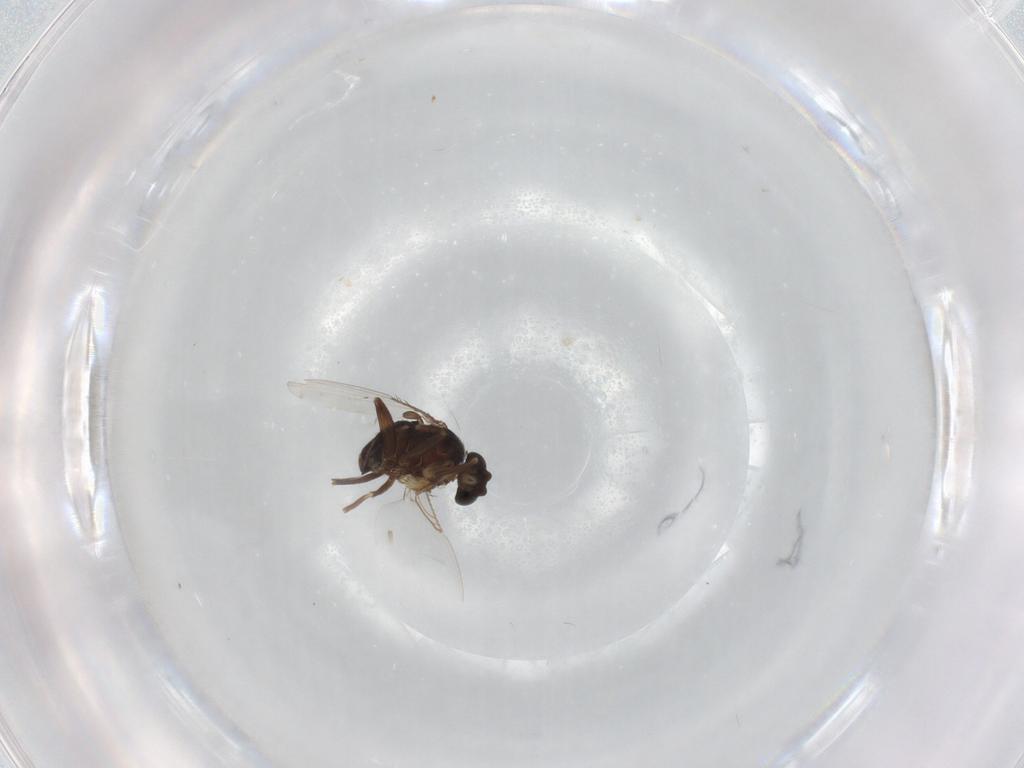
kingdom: Animalia
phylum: Arthropoda
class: Insecta
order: Diptera
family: Phoridae
